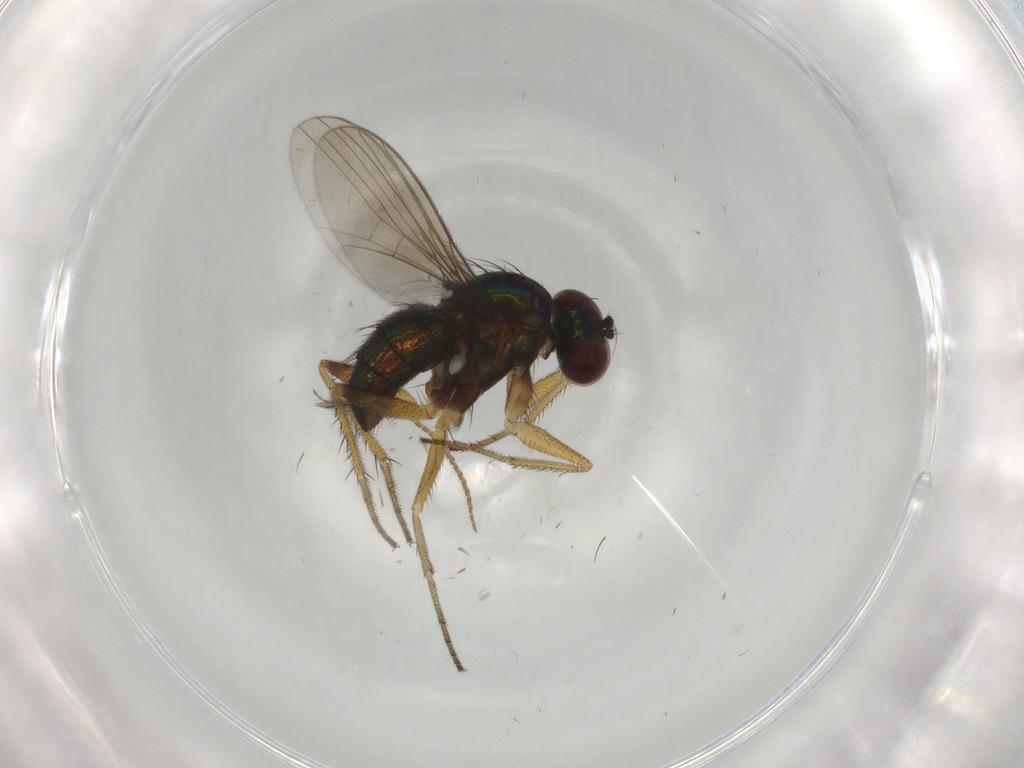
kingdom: Animalia
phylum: Arthropoda
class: Insecta
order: Diptera
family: Dolichopodidae
